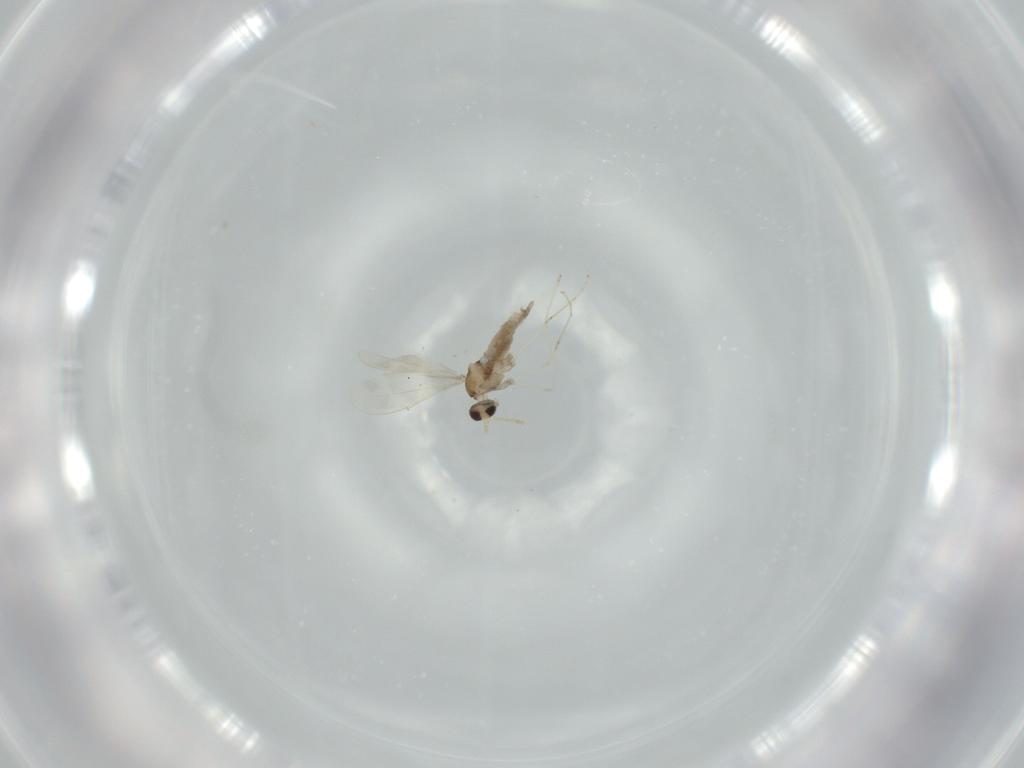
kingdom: Animalia
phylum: Arthropoda
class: Insecta
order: Diptera
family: Cecidomyiidae
